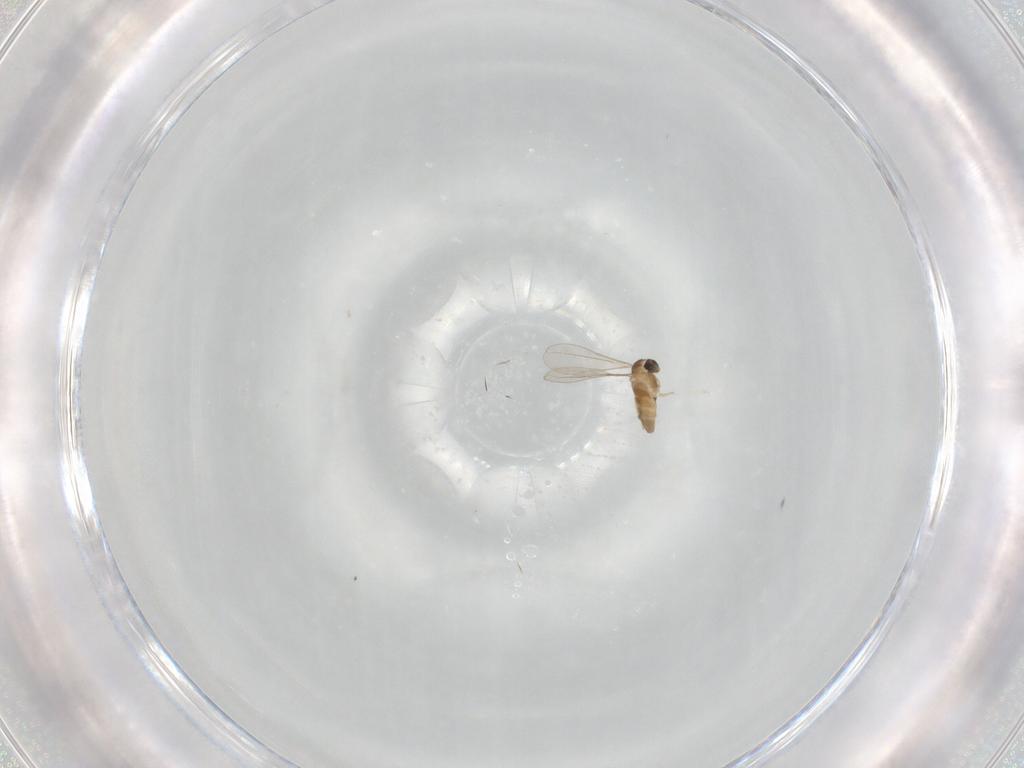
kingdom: Animalia
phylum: Arthropoda
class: Insecta
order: Diptera
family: Cecidomyiidae
